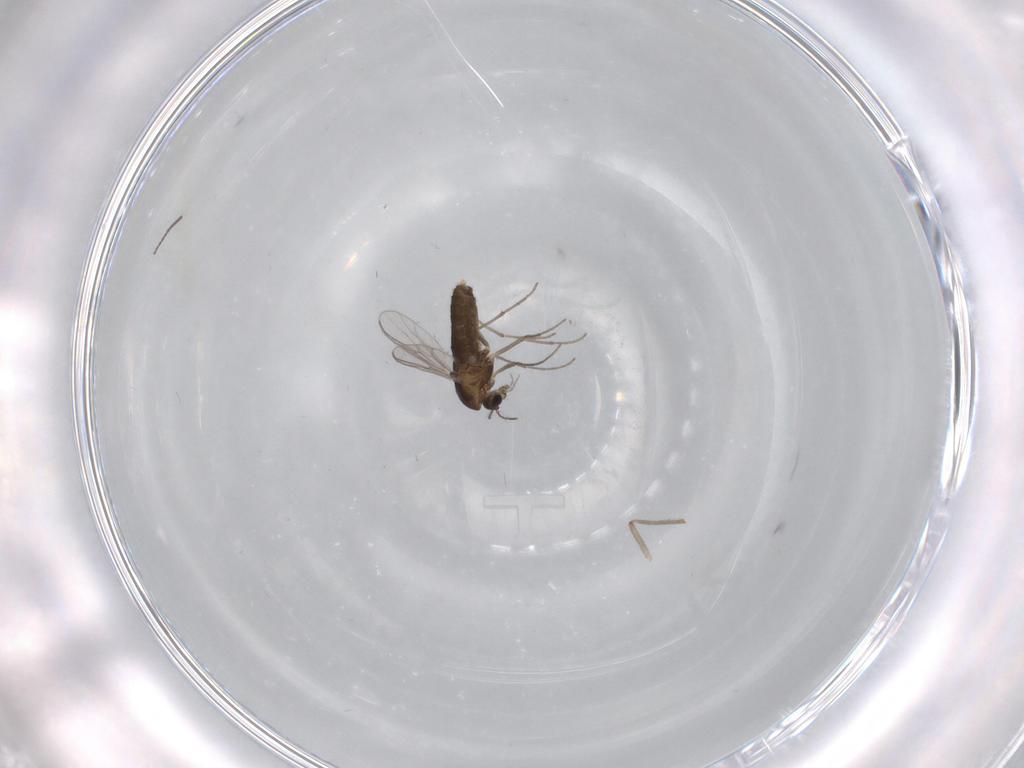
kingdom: Animalia
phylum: Arthropoda
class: Insecta
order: Diptera
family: Chironomidae
